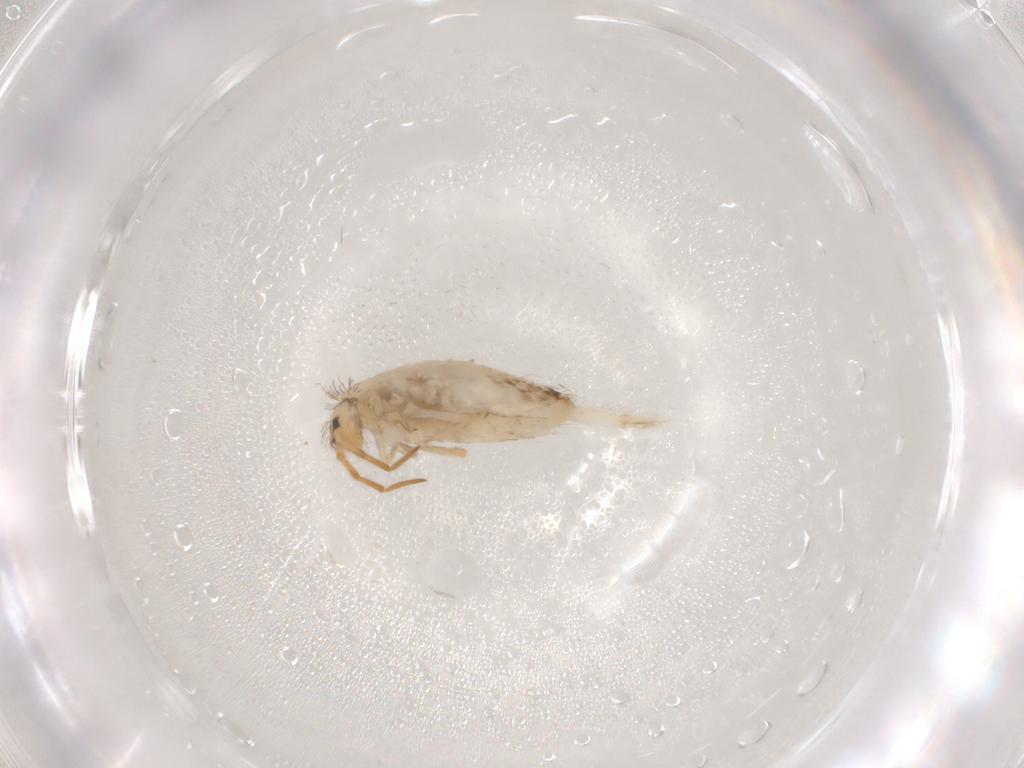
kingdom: Animalia
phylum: Arthropoda
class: Collembola
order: Entomobryomorpha
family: Entomobryidae
